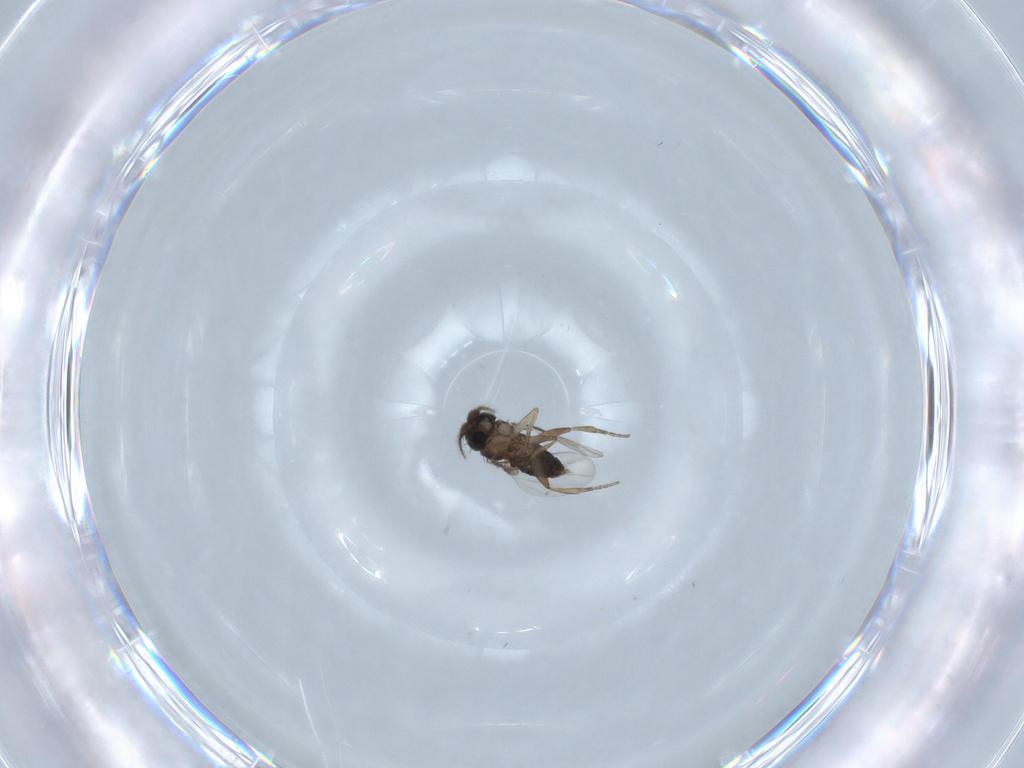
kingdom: Animalia
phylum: Arthropoda
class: Insecta
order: Diptera
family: Phoridae
